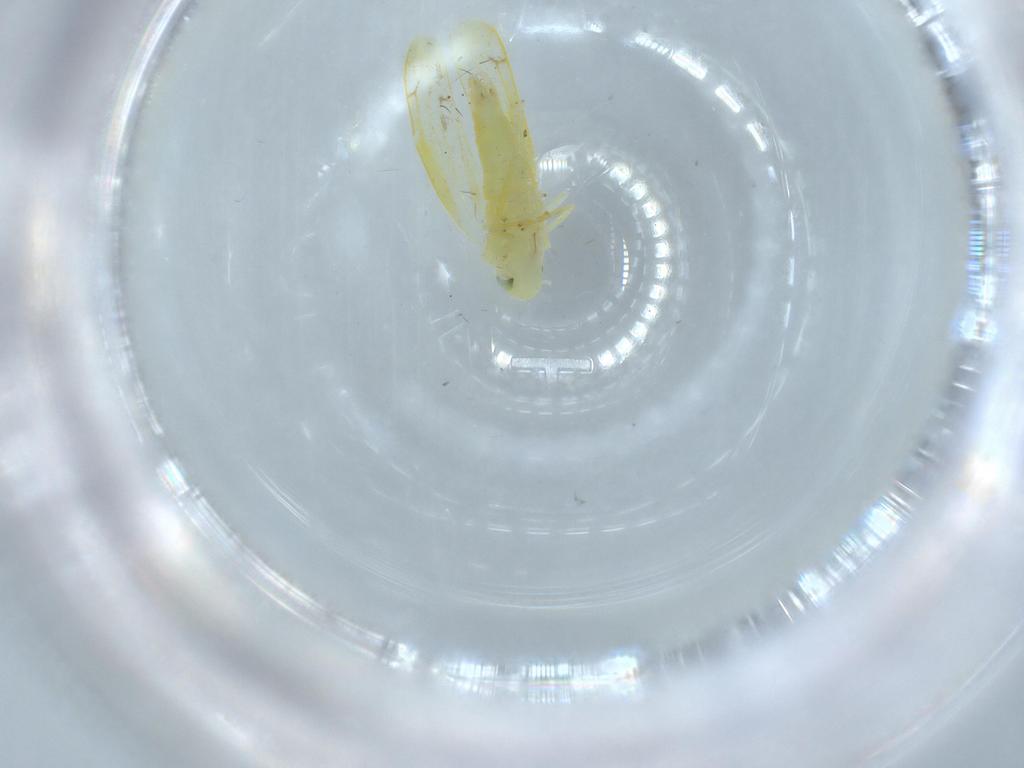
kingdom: Animalia
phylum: Arthropoda
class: Insecta
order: Hemiptera
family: Cicadellidae
